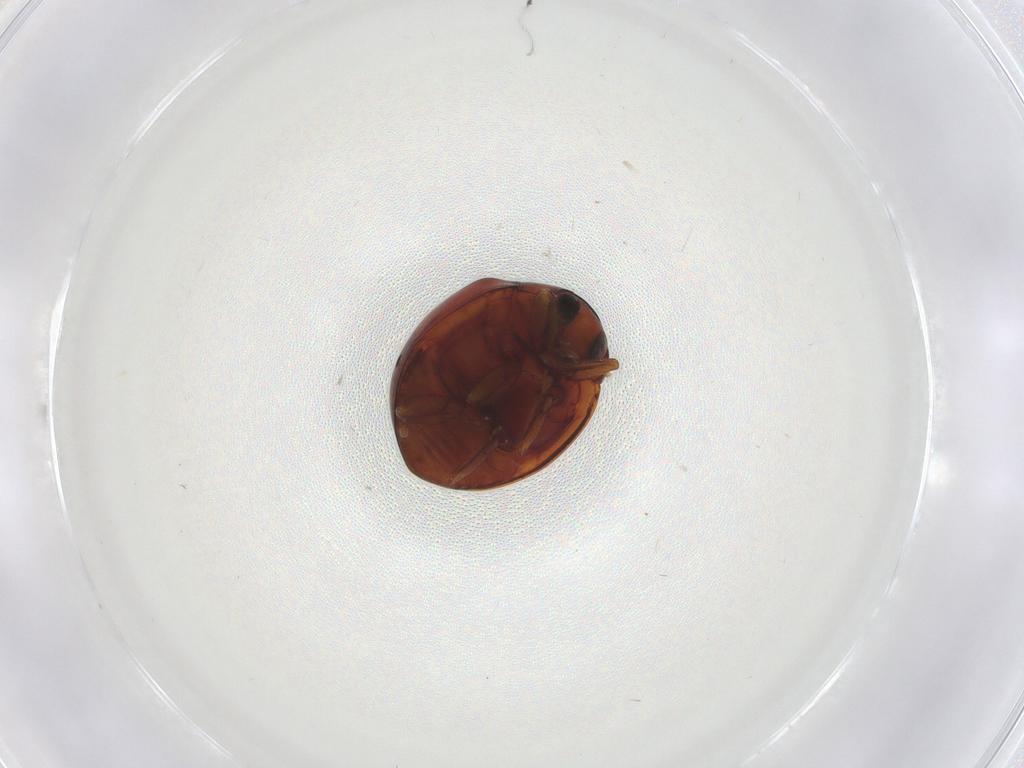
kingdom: Animalia
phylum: Arthropoda
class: Insecta
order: Coleoptera
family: Coccinellidae
